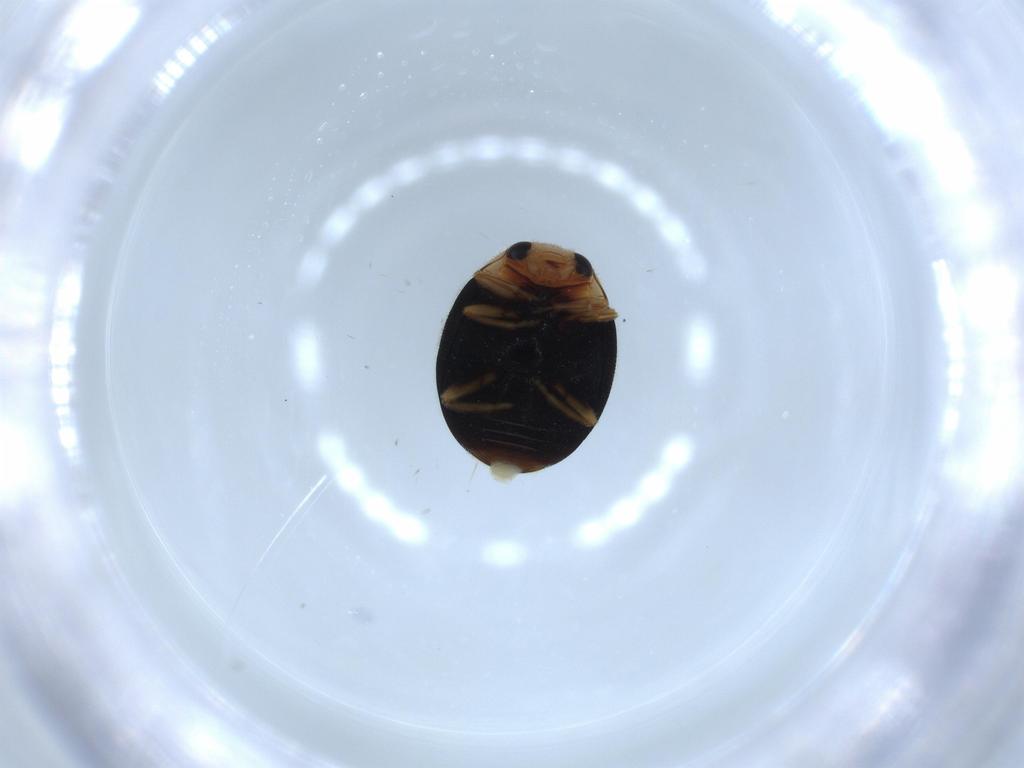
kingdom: Animalia
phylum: Arthropoda
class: Insecta
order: Coleoptera
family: Coccinellidae
